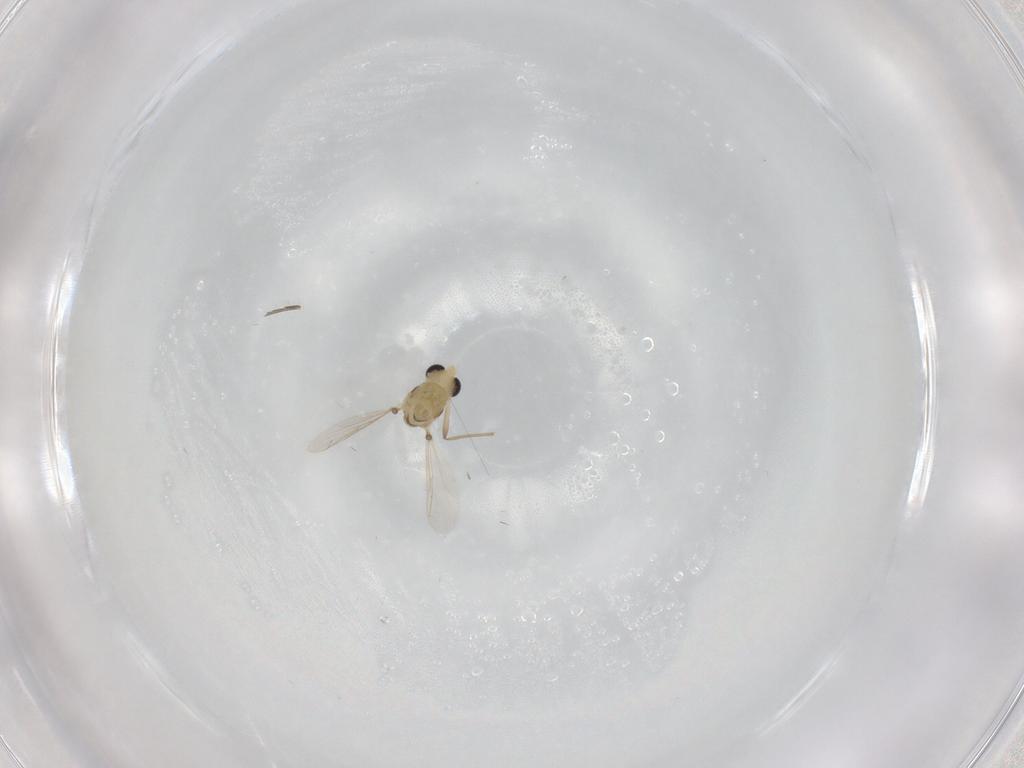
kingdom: Animalia
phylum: Arthropoda
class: Insecta
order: Diptera
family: Chironomidae
